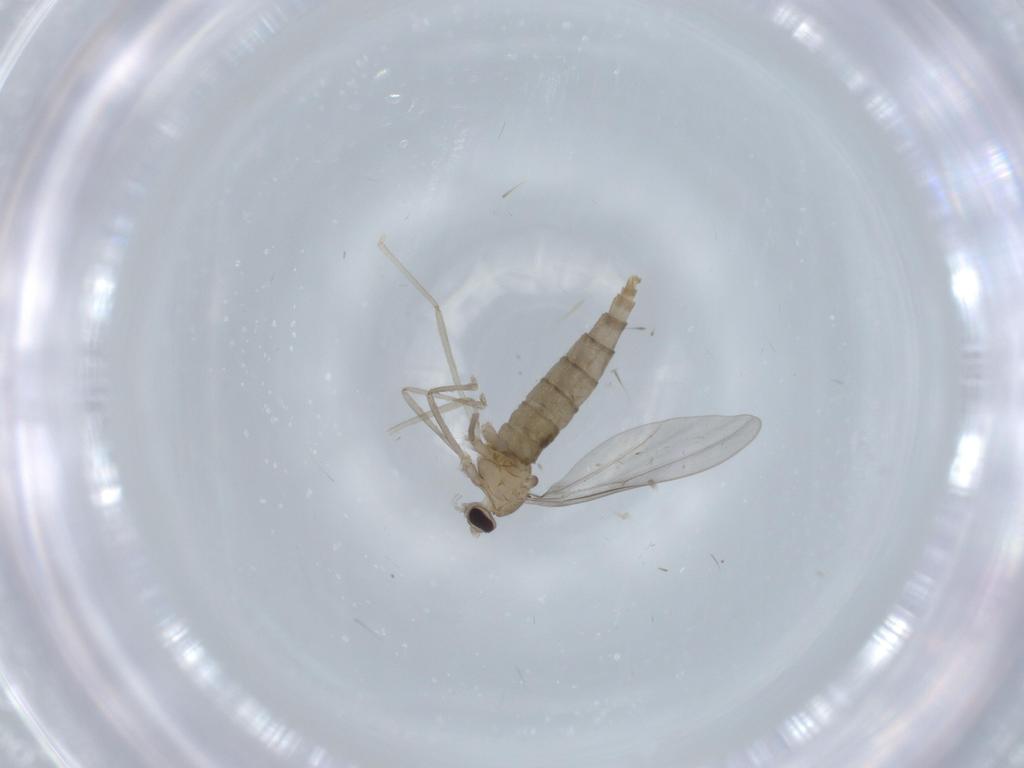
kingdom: Animalia
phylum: Arthropoda
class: Insecta
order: Diptera
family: Cecidomyiidae
